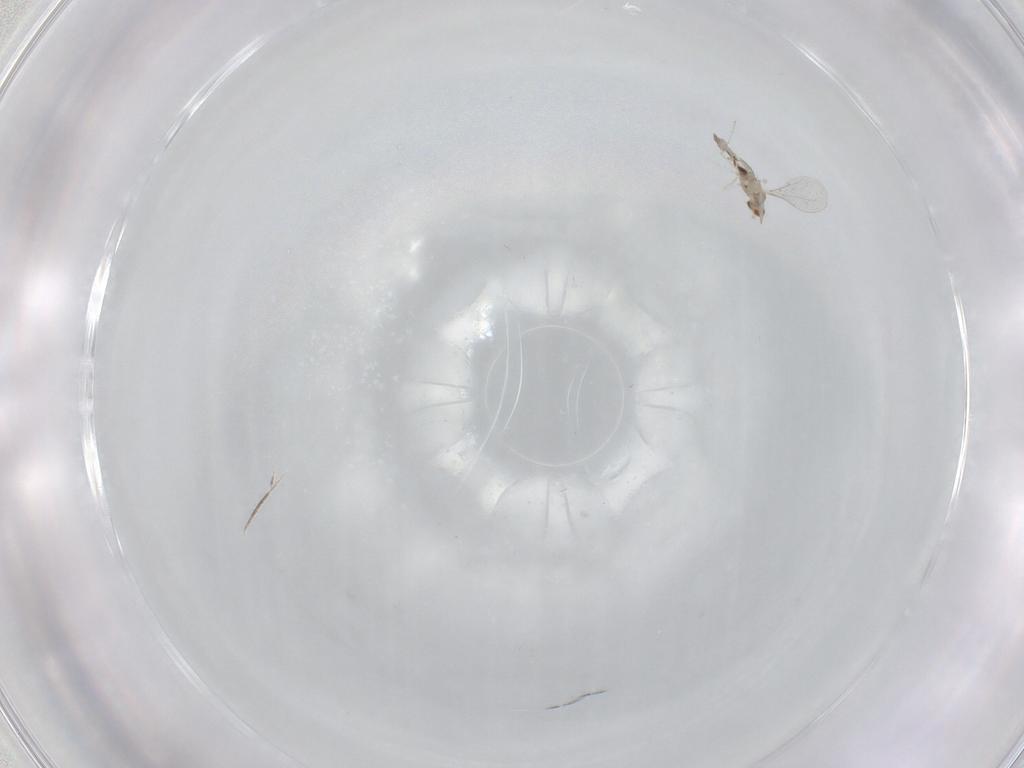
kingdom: Animalia
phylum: Arthropoda
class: Insecta
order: Diptera
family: Cecidomyiidae
